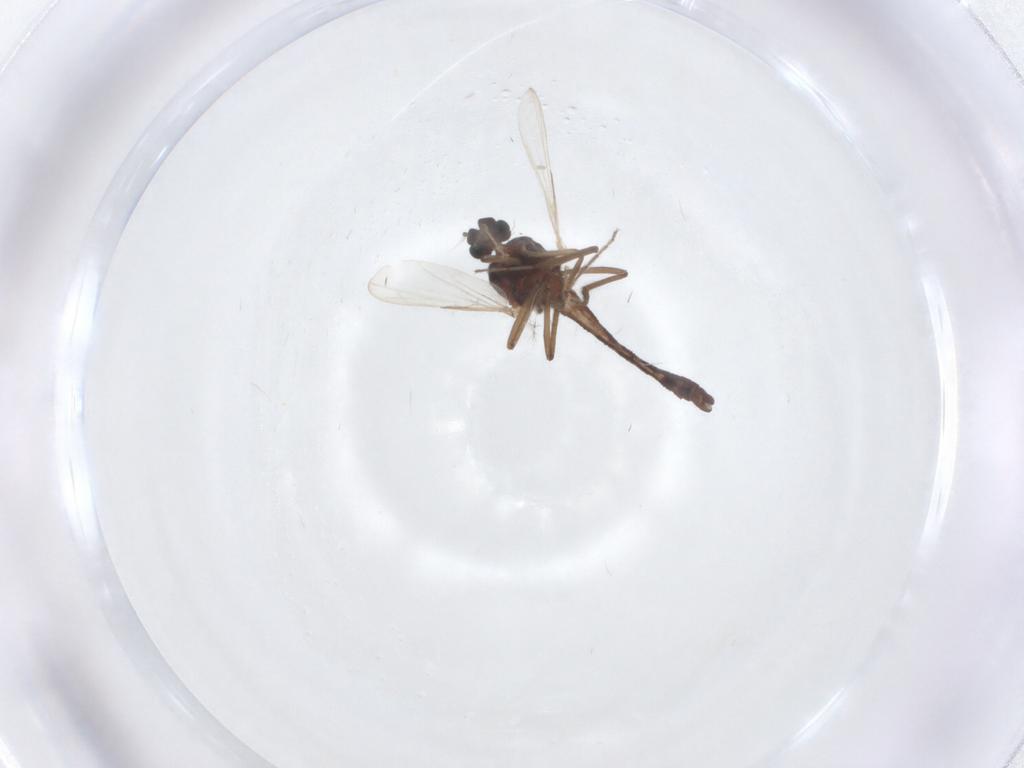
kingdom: Animalia
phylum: Arthropoda
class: Insecta
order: Diptera
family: Ceratopogonidae
